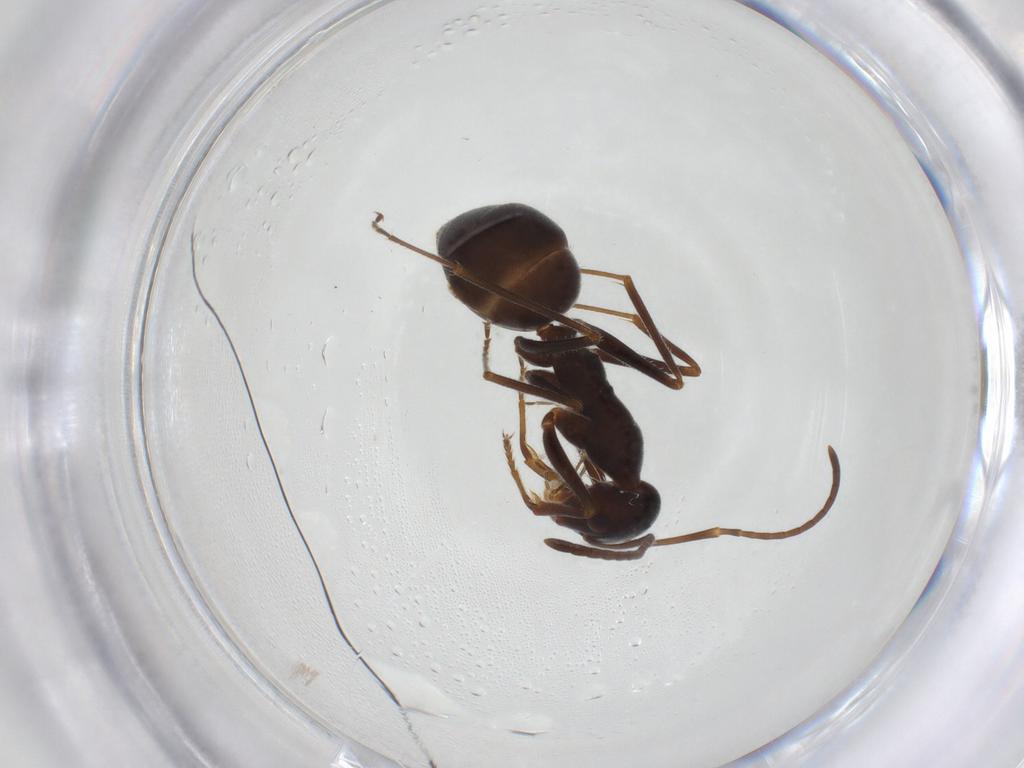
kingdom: Animalia
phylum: Arthropoda
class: Insecta
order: Hymenoptera
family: Formicidae
